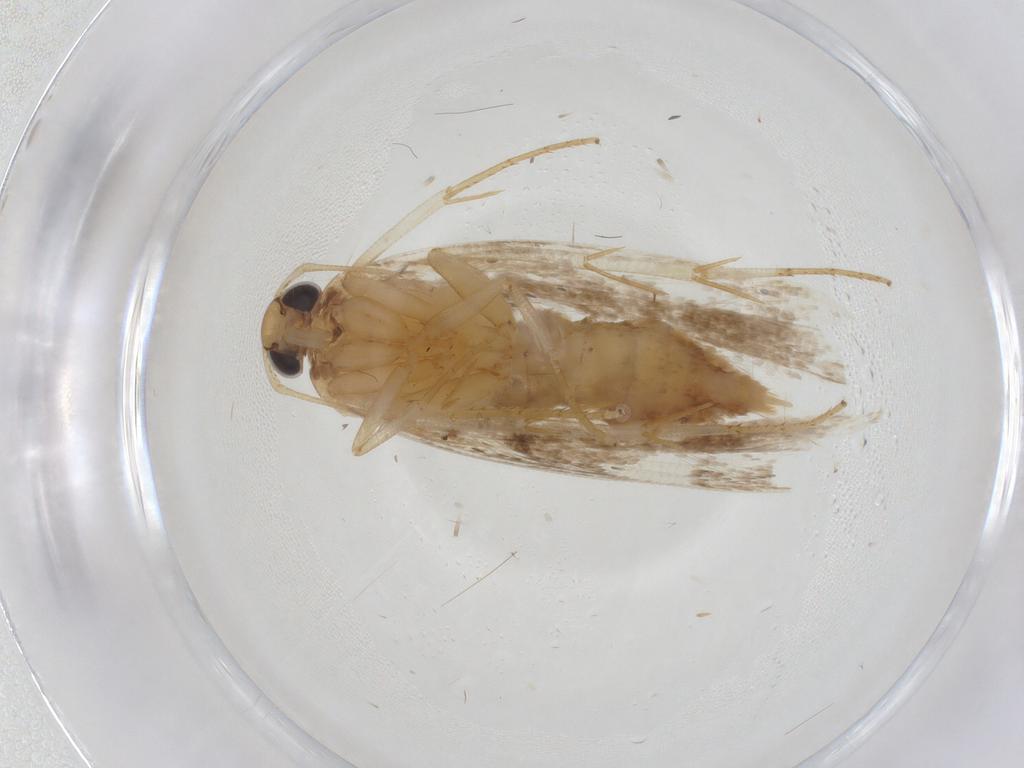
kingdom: Animalia
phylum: Arthropoda
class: Insecta
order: Lepidoptera
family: Gelechiidae
